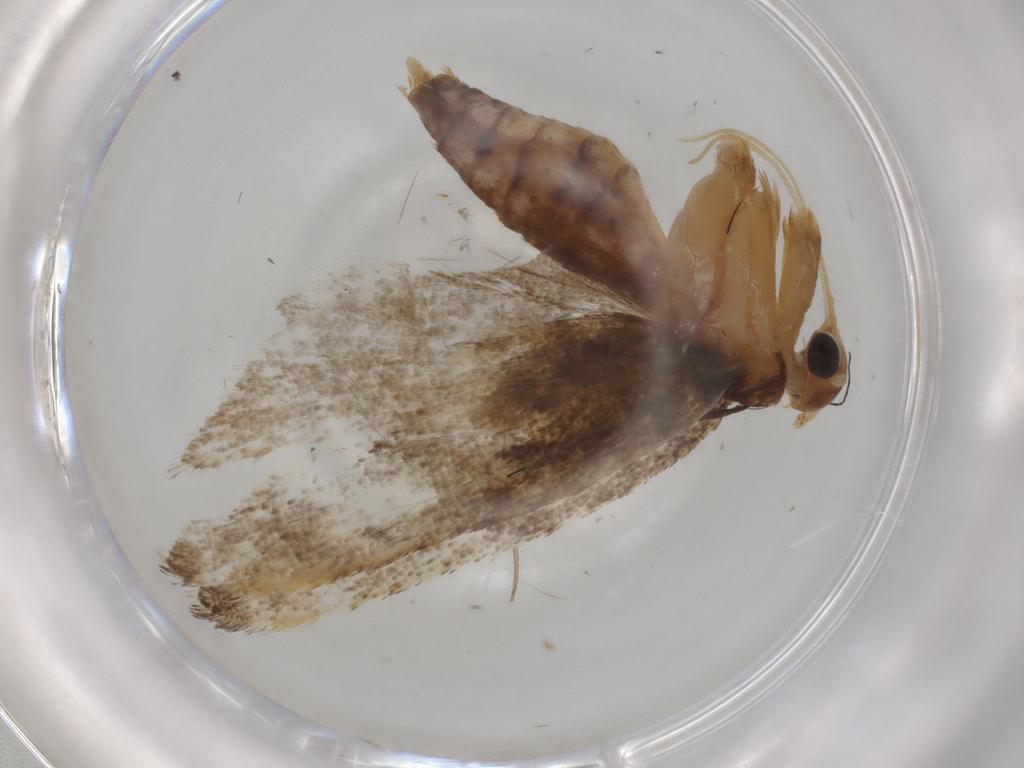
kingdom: Animalia
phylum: Arthropoda
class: Insecta
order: Lepidoptera
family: Lecithoceridae
